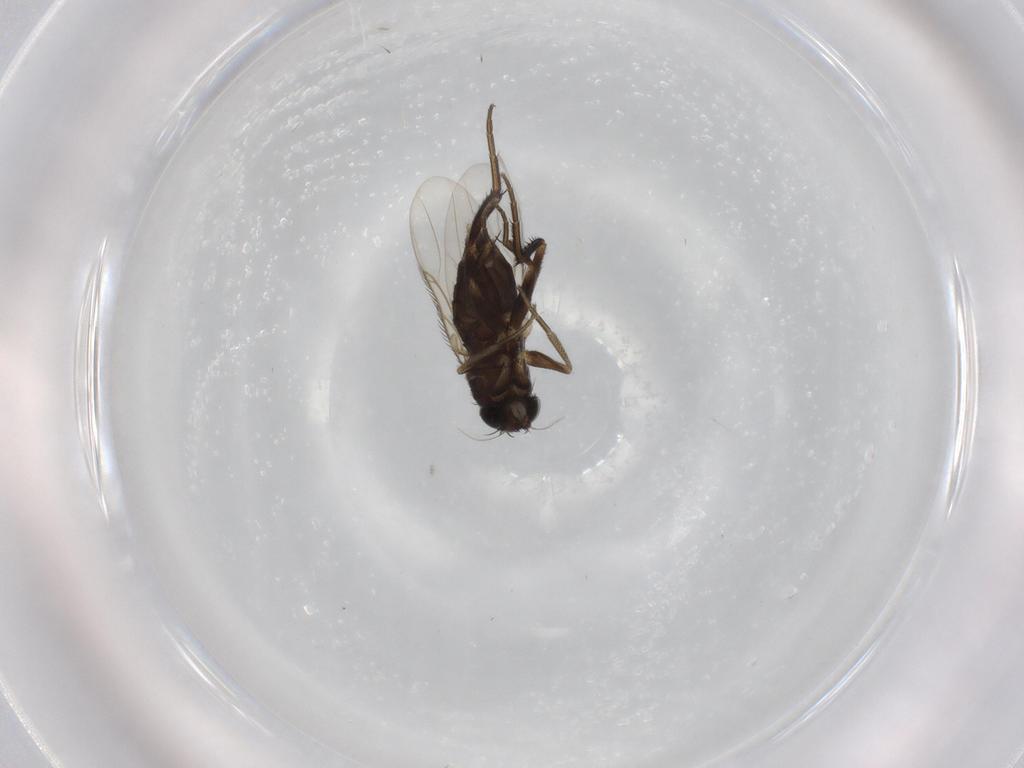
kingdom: Animalia
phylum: Arthropoda
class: Insecta
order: Diptera
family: Phoridae
